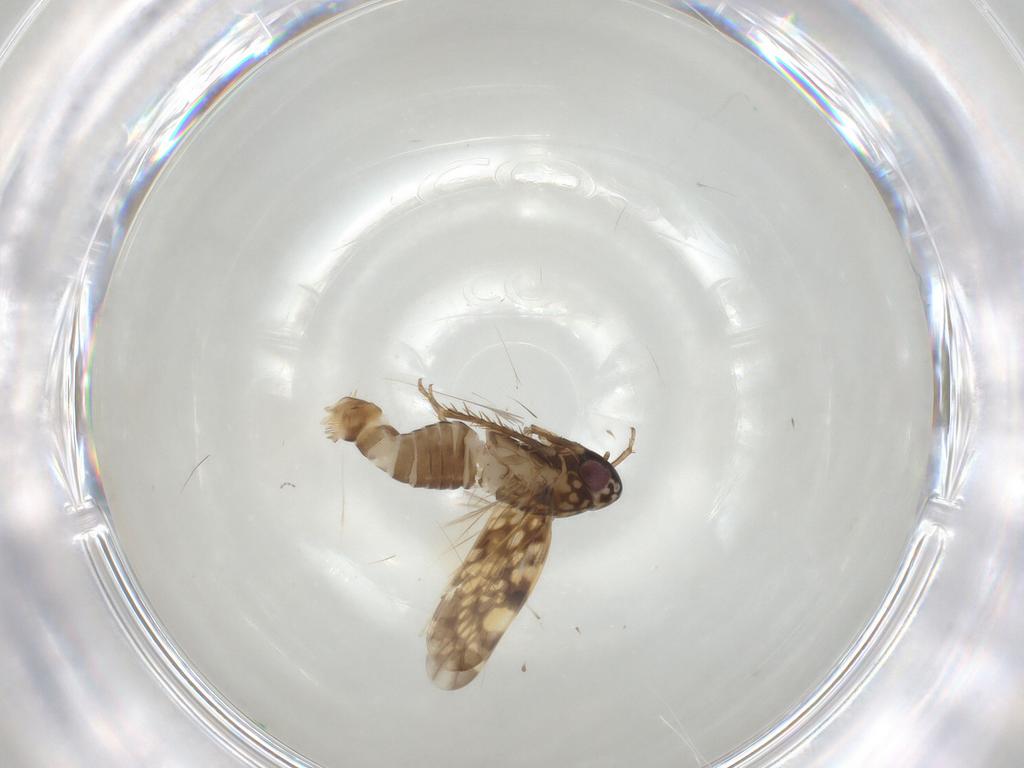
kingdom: Animalia
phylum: Arthropoda
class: Insecta
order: Hemiptera
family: Cicadellidae
